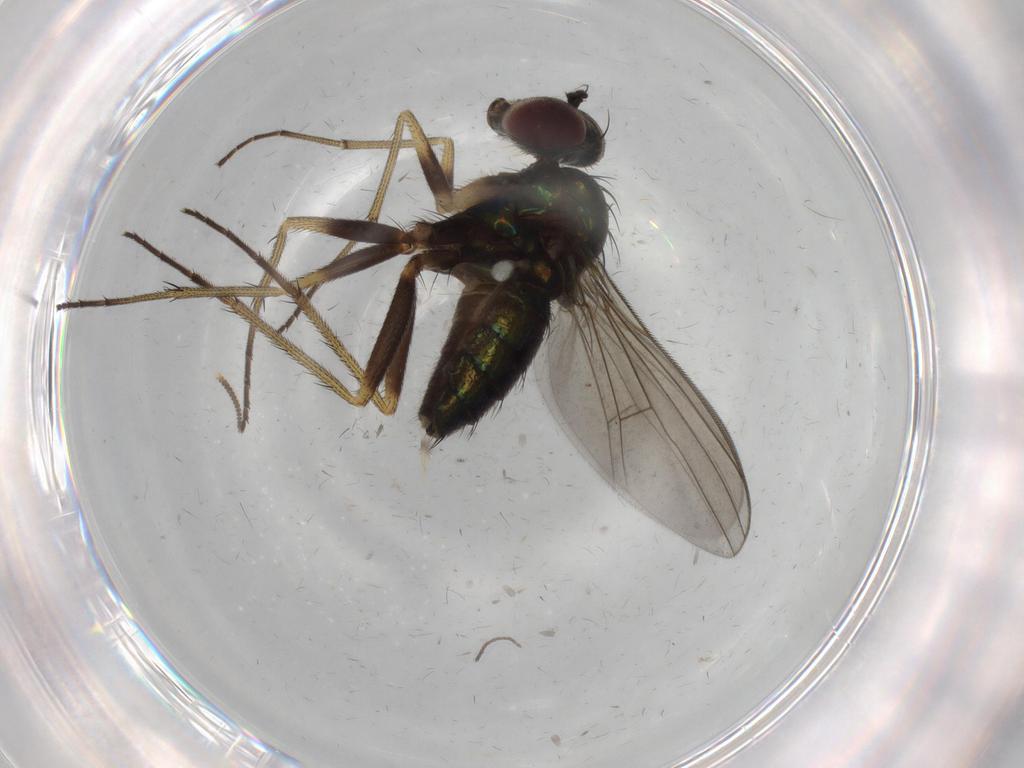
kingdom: Animalia
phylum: Arthropoda
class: Insecta
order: Diptera
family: Dolichopodidae
